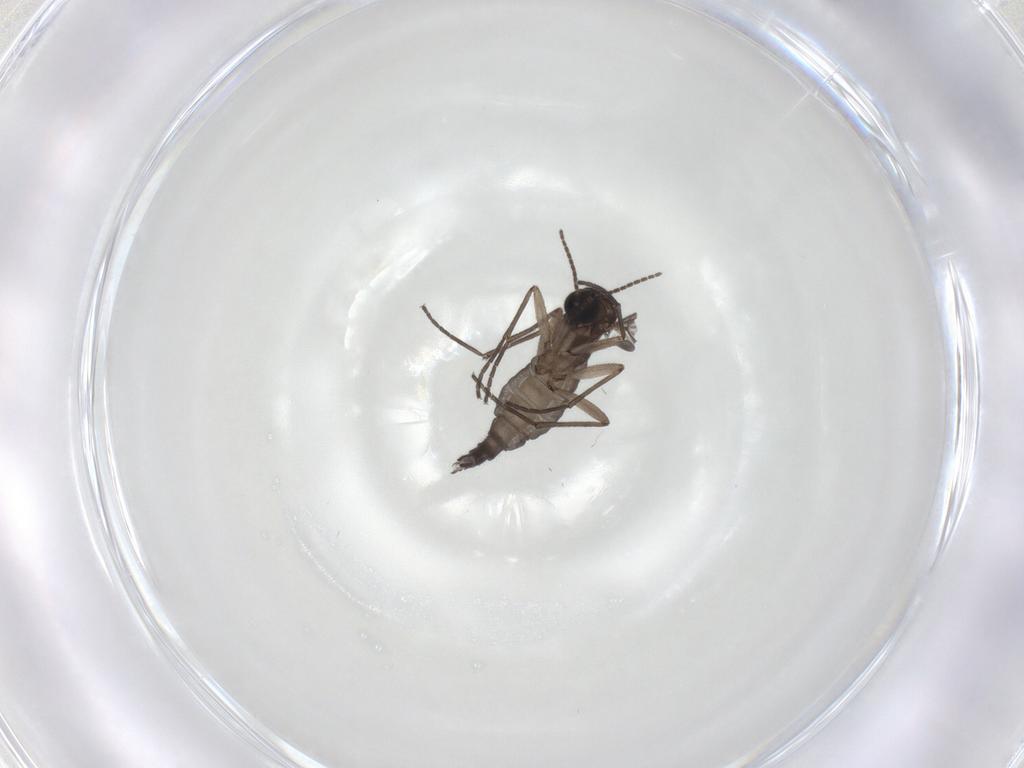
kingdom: Animalia
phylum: Arthropoda
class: Insecta
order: Diptera
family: Sciaridae
